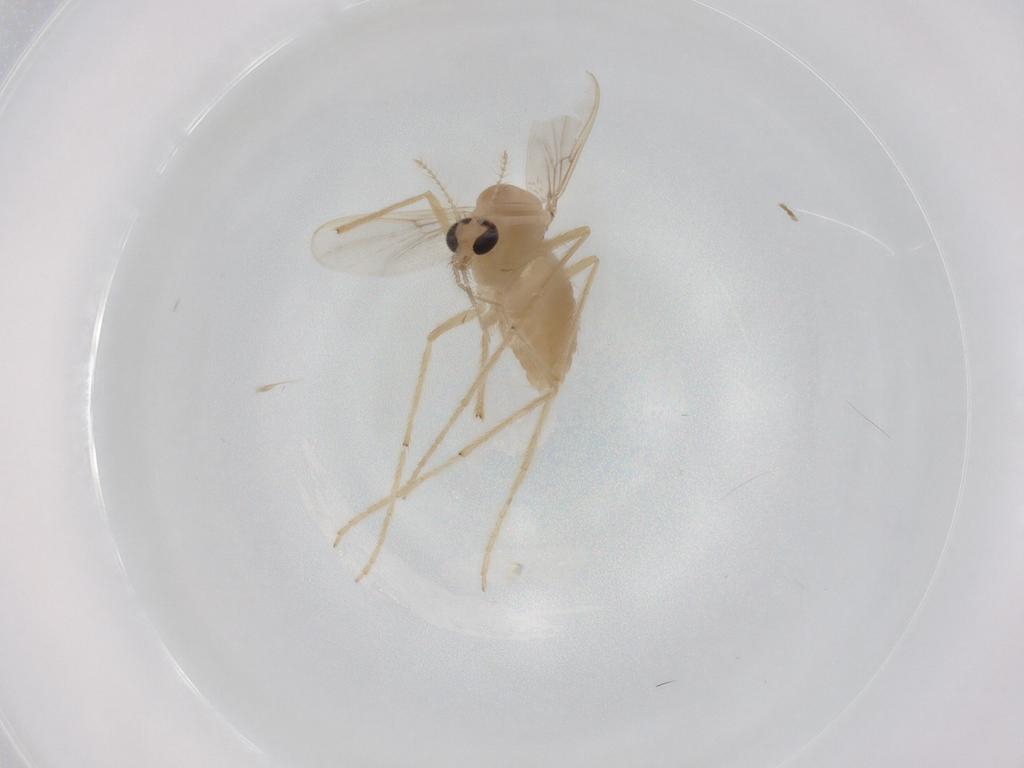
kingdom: Animalia
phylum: Arthropoda
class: Insecta
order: Diptera
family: Chironomidae
